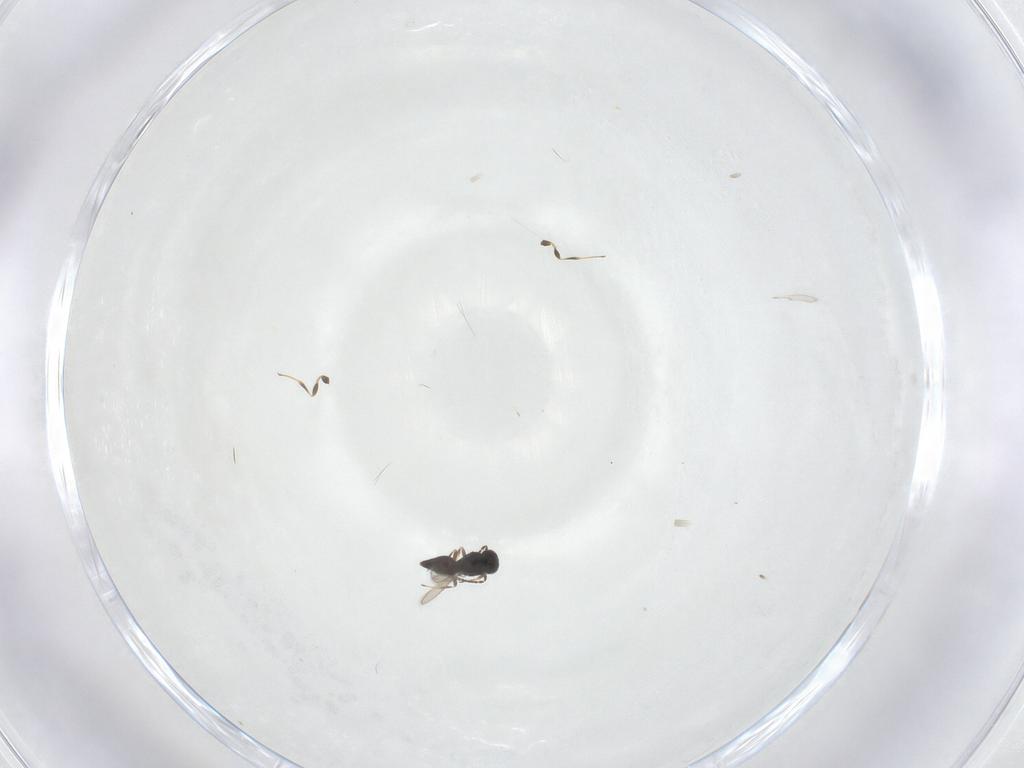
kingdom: Animalia
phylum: Arthropoda
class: Insecta
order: Hymenoptera
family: Scelionidae
